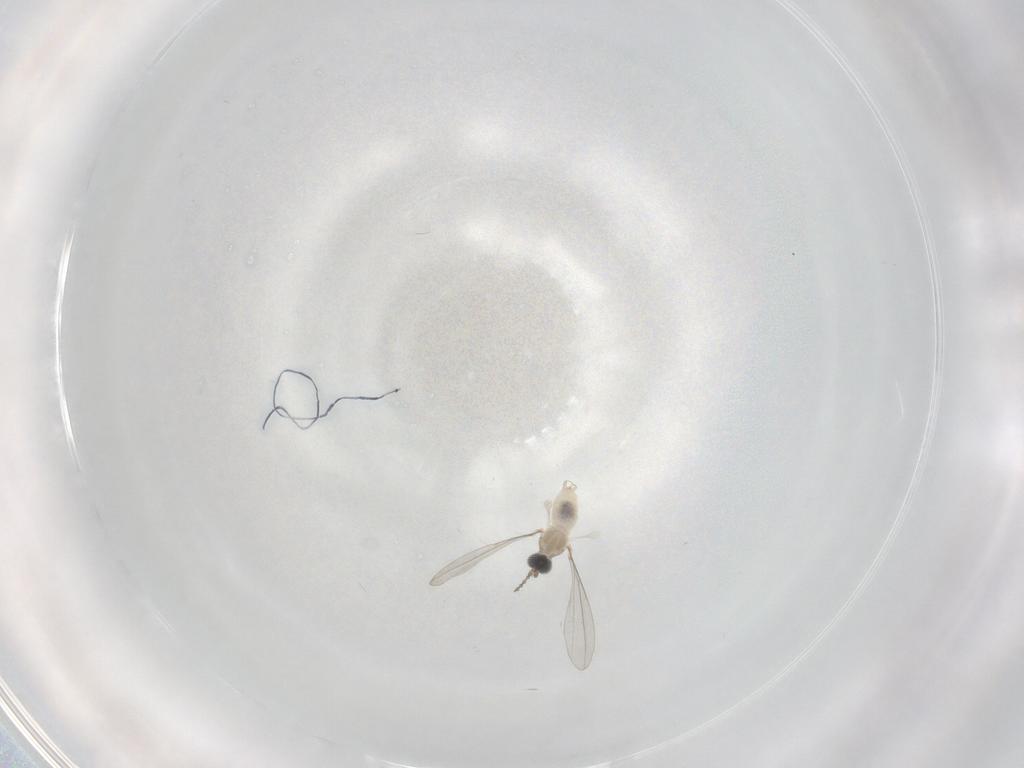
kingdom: Animalia
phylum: Arthropoda
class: Insecta
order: Diptera
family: Cecidomyiidae
